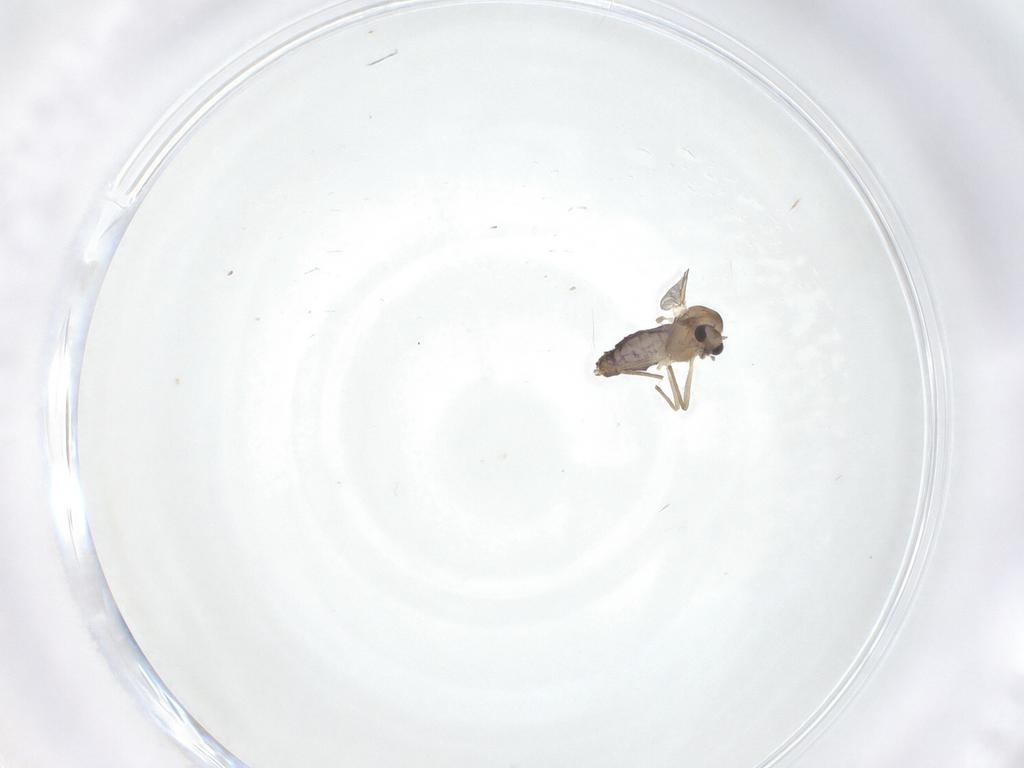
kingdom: Animalia
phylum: Arthropoda
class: Insecta
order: Diptera
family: Chironomidae
